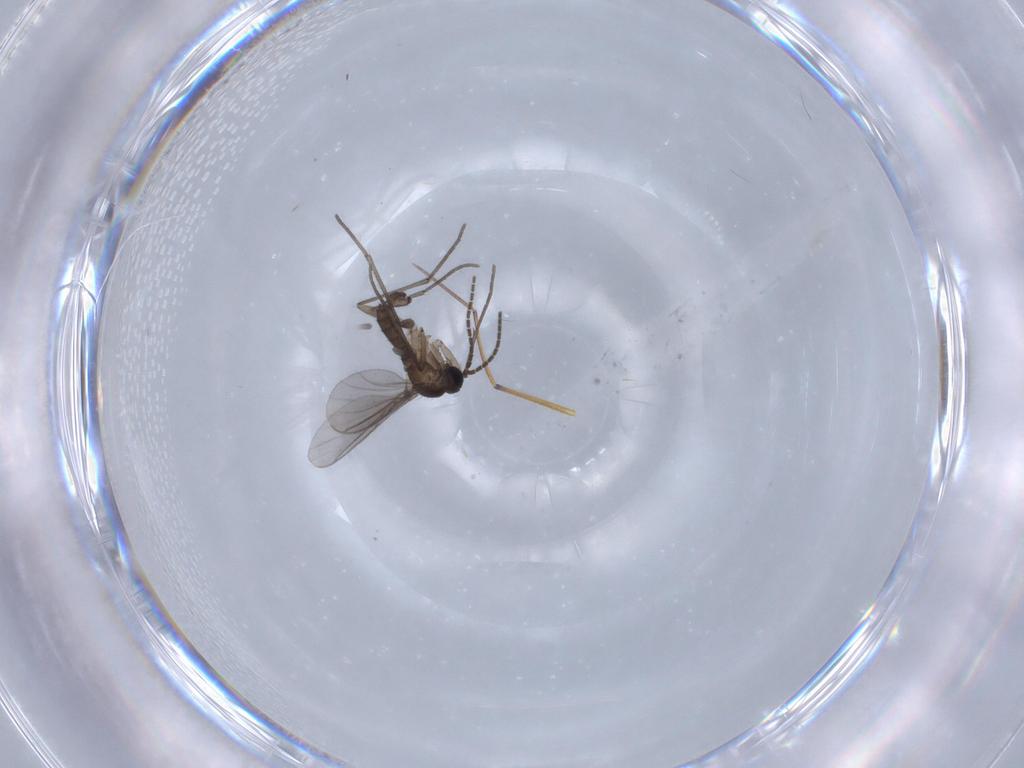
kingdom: Animalia
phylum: Arthropoda
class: Insecta
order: Diptera
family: Sciaridae
